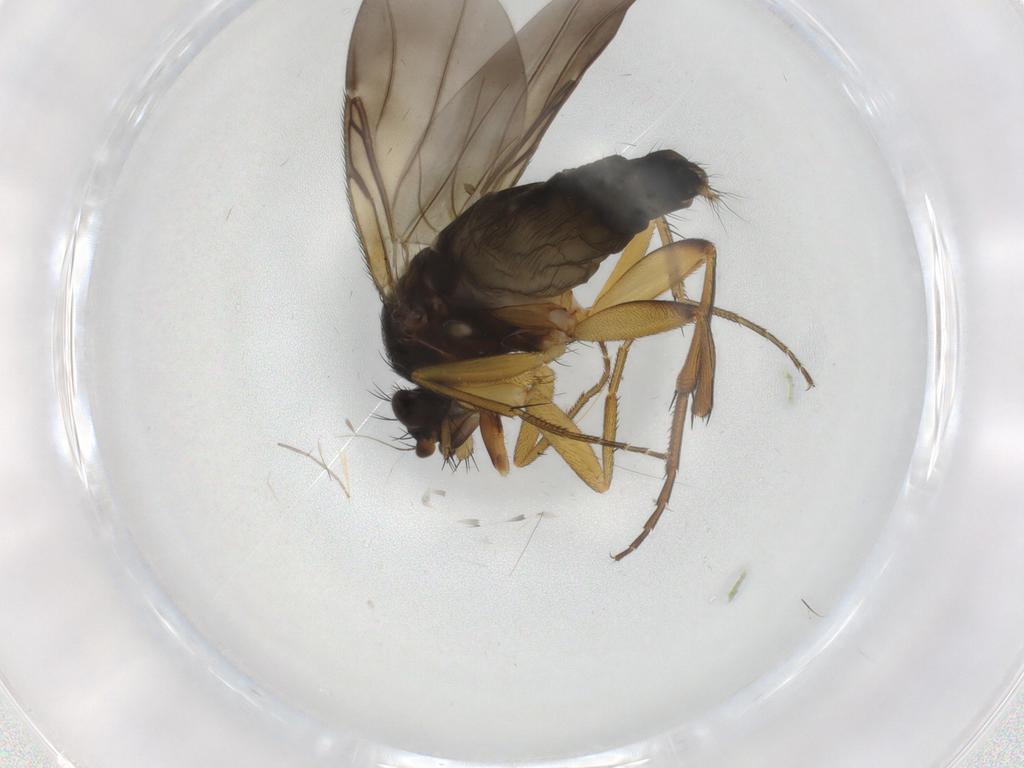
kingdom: Animalia
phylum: Arthropoda
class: Insecta
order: Diptera
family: Phoridae
